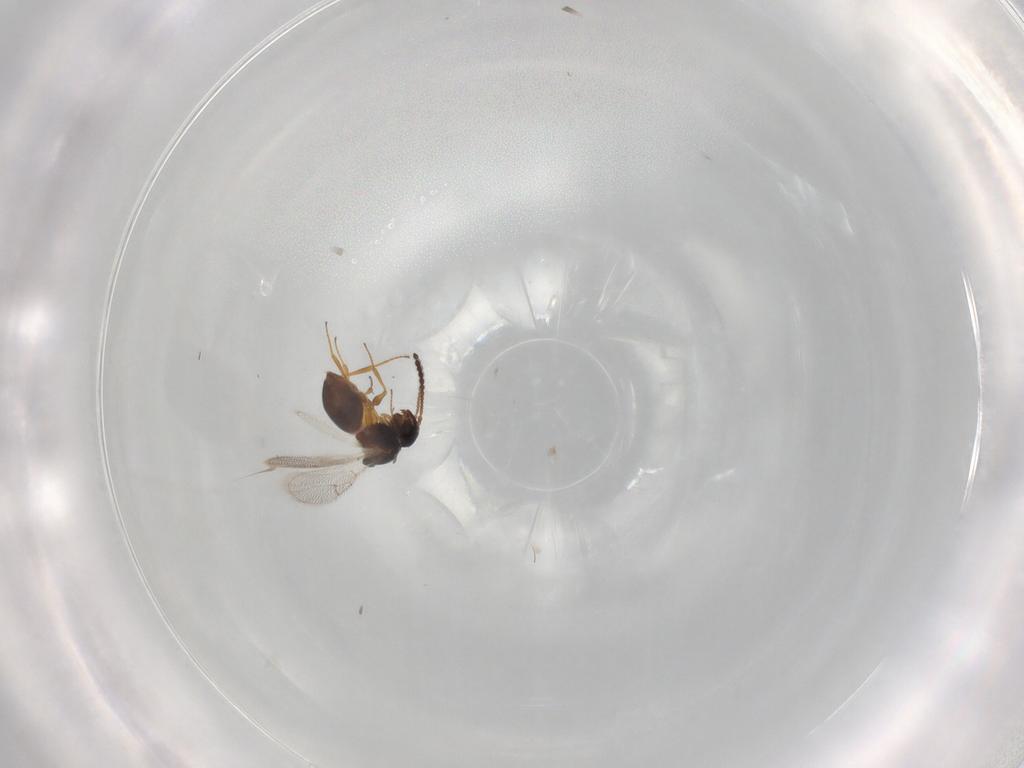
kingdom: Animalia
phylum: Arthropoda
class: Insecta
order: Hymenoptera
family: Figitidae
